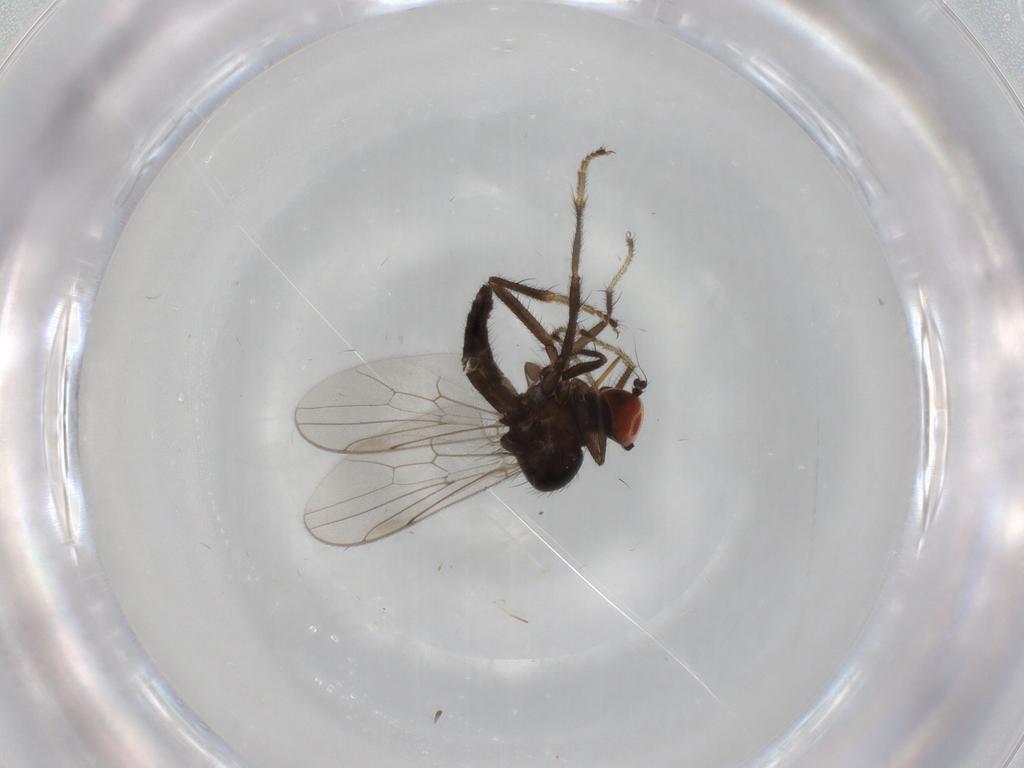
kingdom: Animalia
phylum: Arthropoda
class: Insecta
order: Diptera
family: Hybotidae
